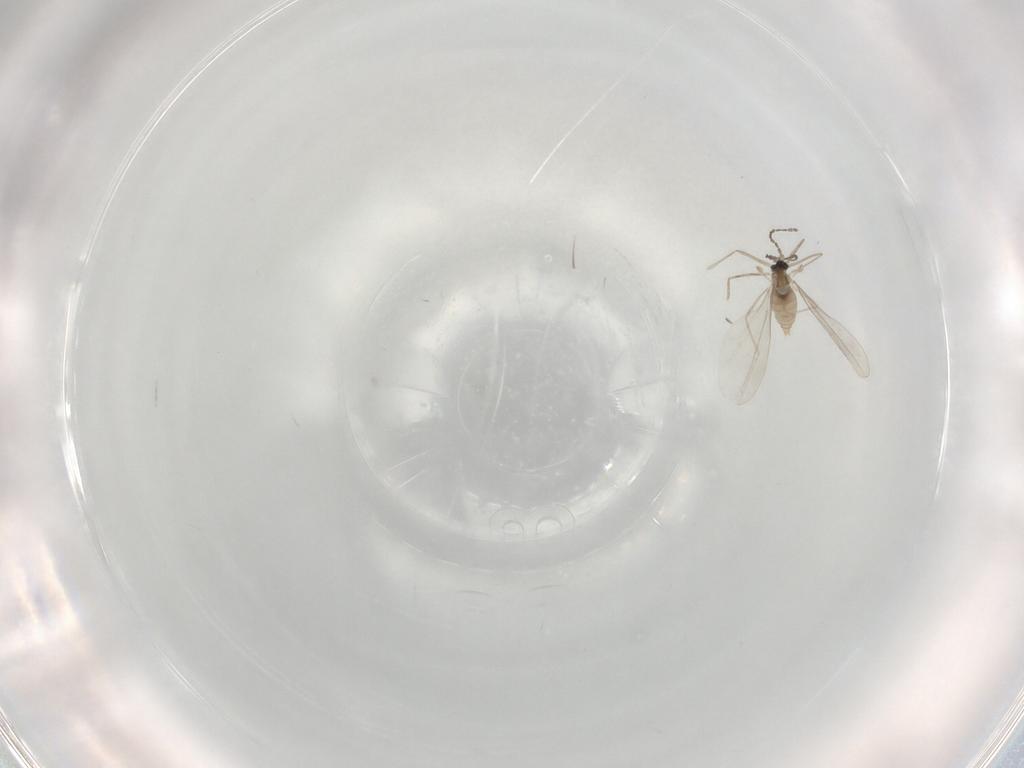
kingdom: Animalia
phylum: Arthropoda
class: Insecta
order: Diptera
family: Cecidomyiidae
